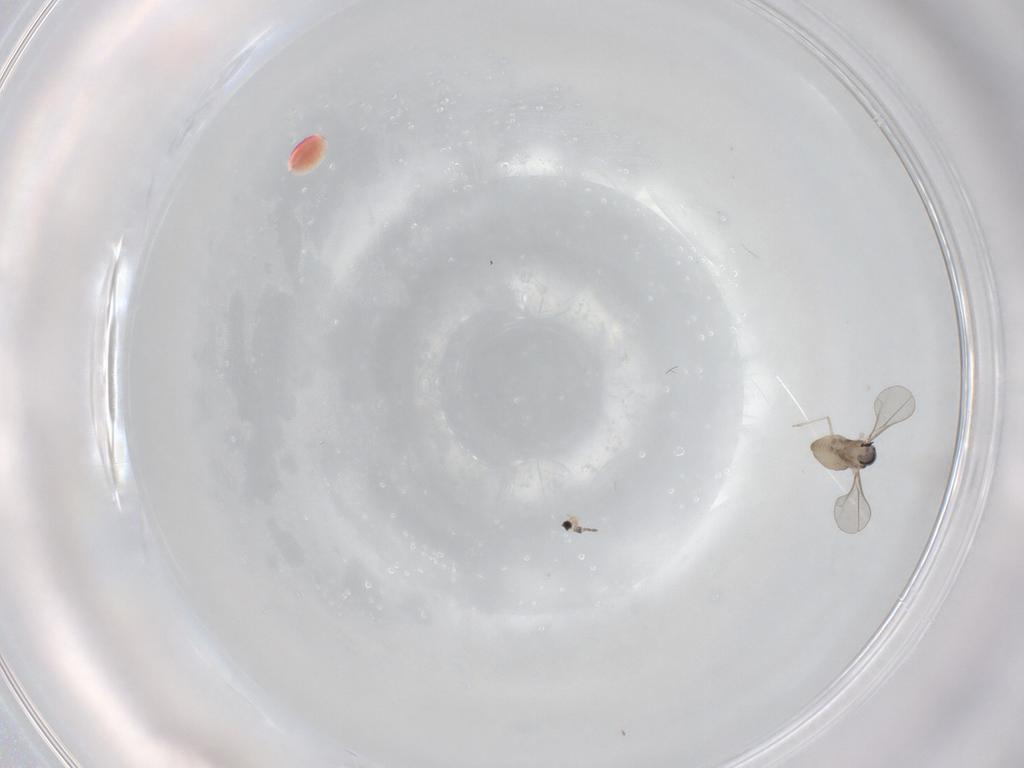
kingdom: Animalia
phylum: Arthropoda
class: Insecta
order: Diptera
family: Cecidomyiidae
